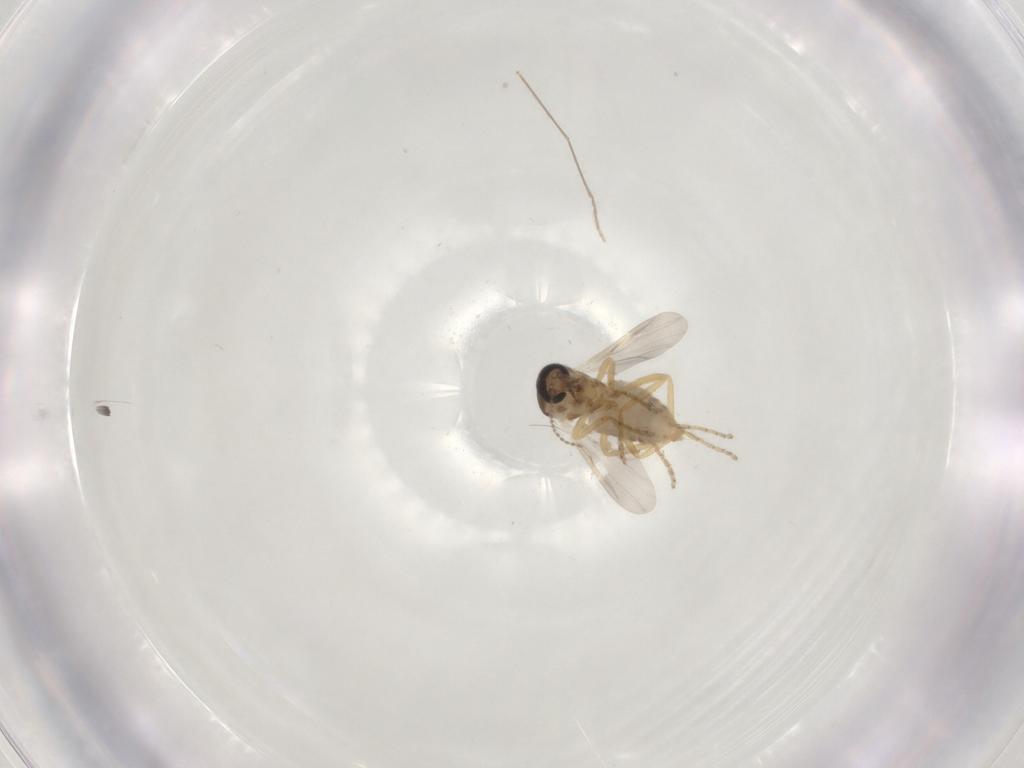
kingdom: Animalia
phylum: Arthropoda
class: Insecta
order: Diptera
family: Ceratopogonidae
